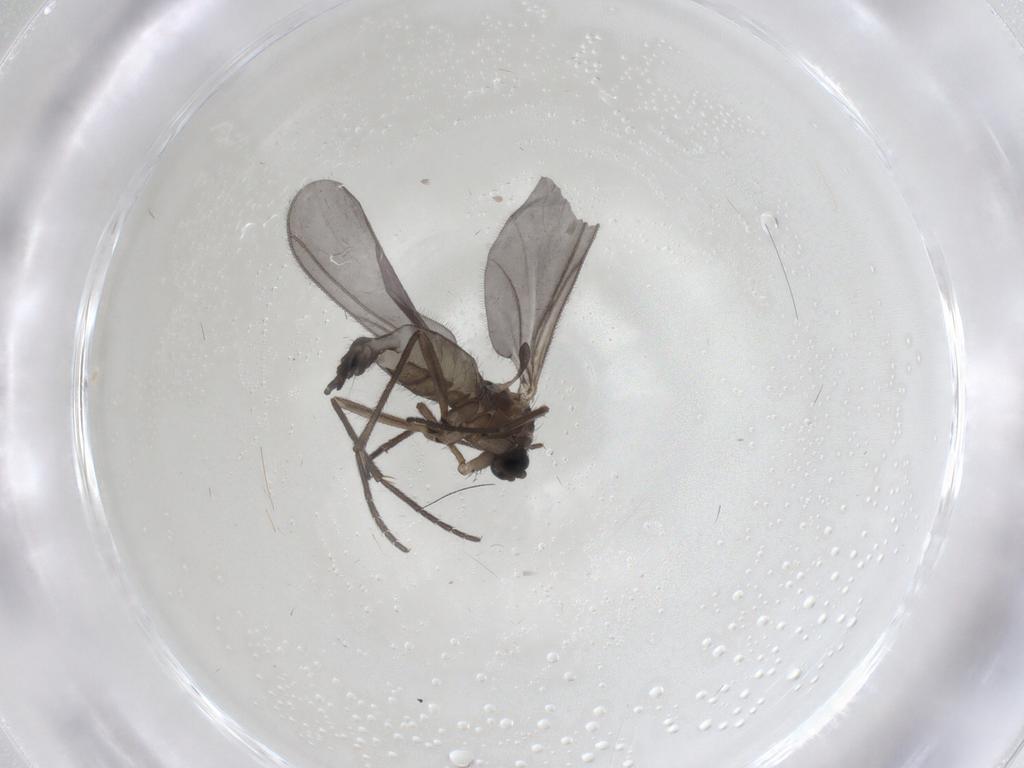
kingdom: Animalia
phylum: Arthropoda
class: Insecta
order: Diptera
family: Sciaridae
